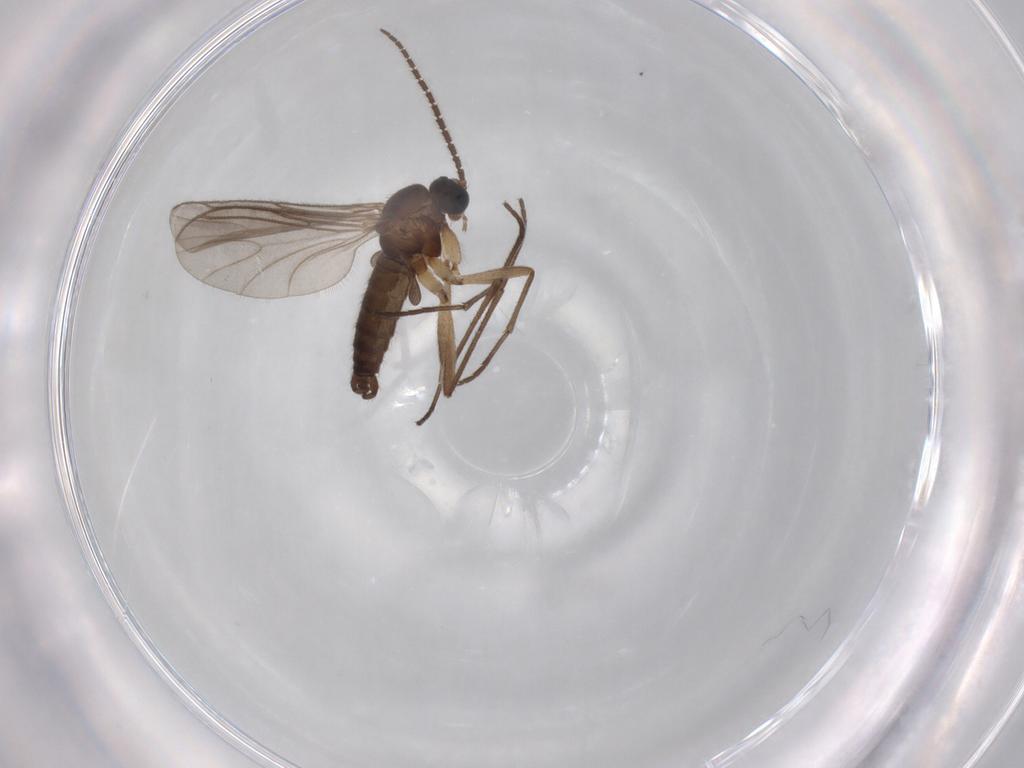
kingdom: Animalia
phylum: Arthropoda
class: Insecta
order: Diptera
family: Sciaridae
